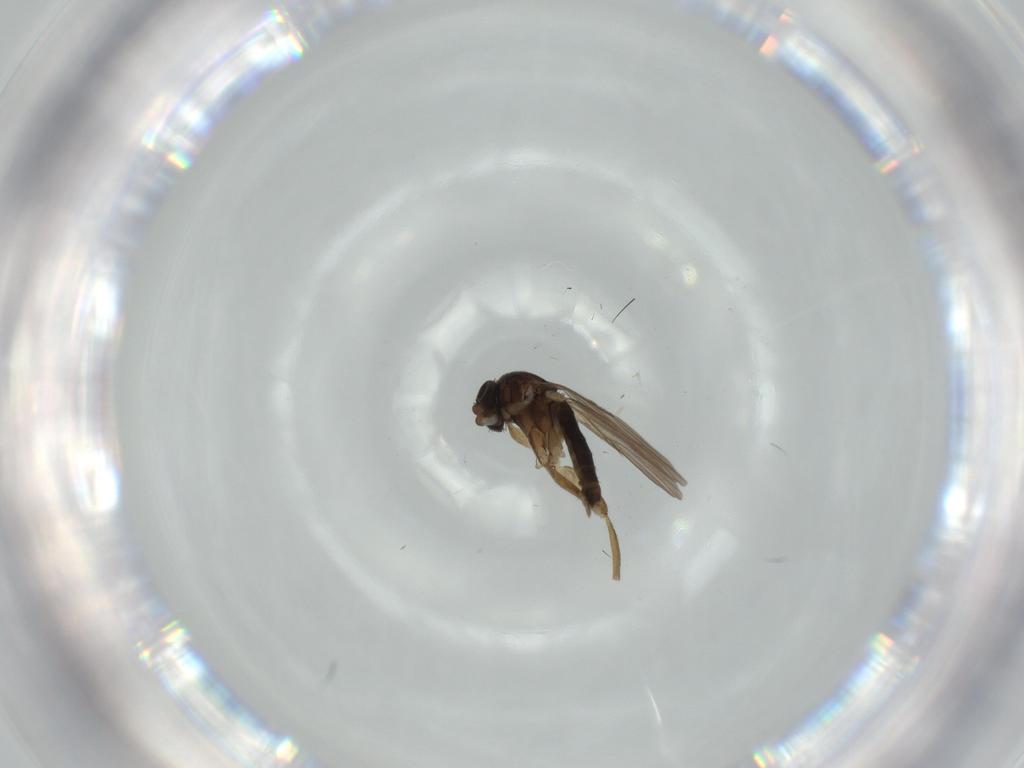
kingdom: Animalia
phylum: Arthropoda
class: Insecta
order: Diptera
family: Phoridae
